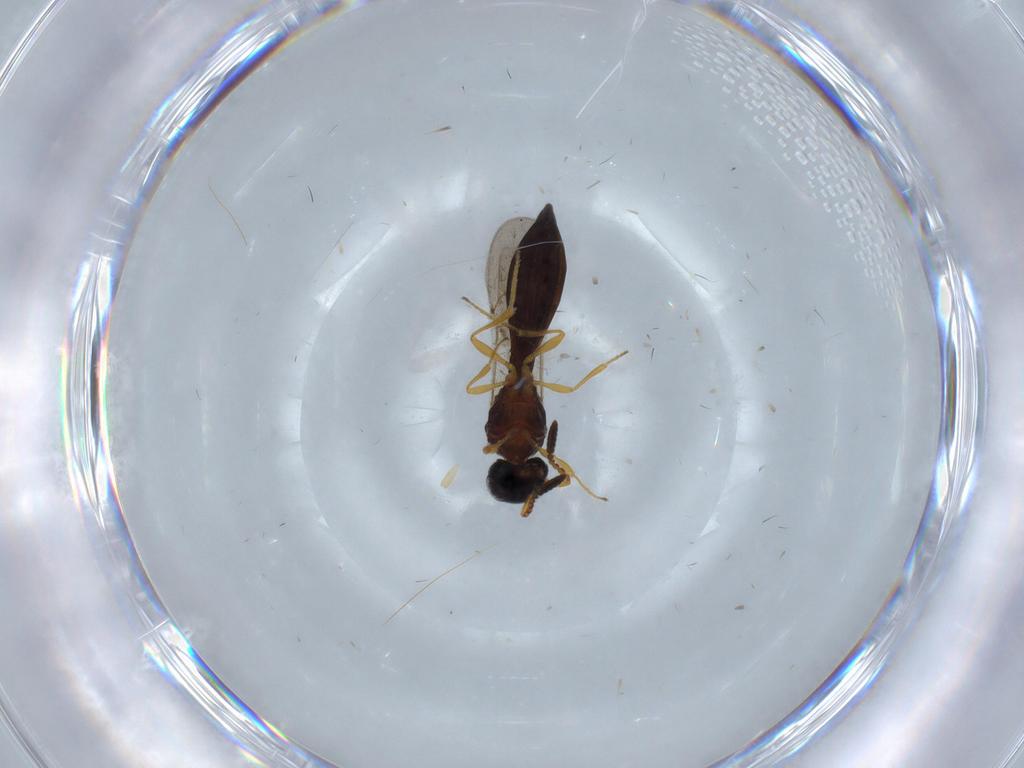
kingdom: Animalia
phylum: Arthropoda
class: Insecta
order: Hymenoptera
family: Scelionidae
